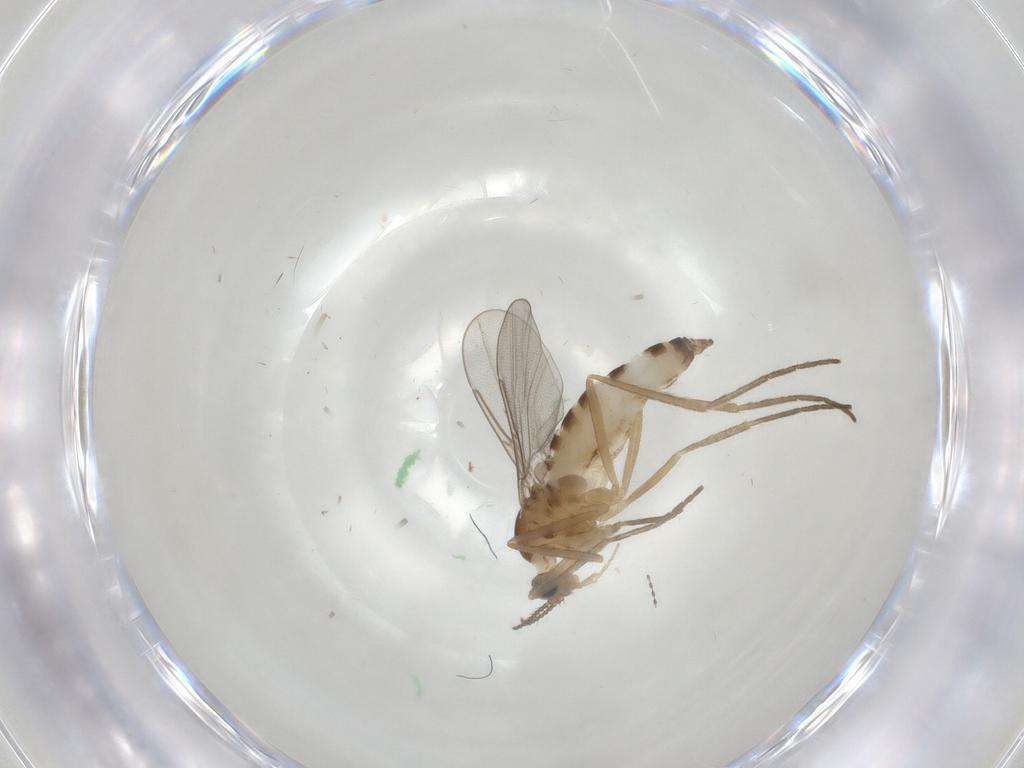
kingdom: Animalia
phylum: Arthropoda
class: Insecta
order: Diptera
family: Cecidomyiidae
